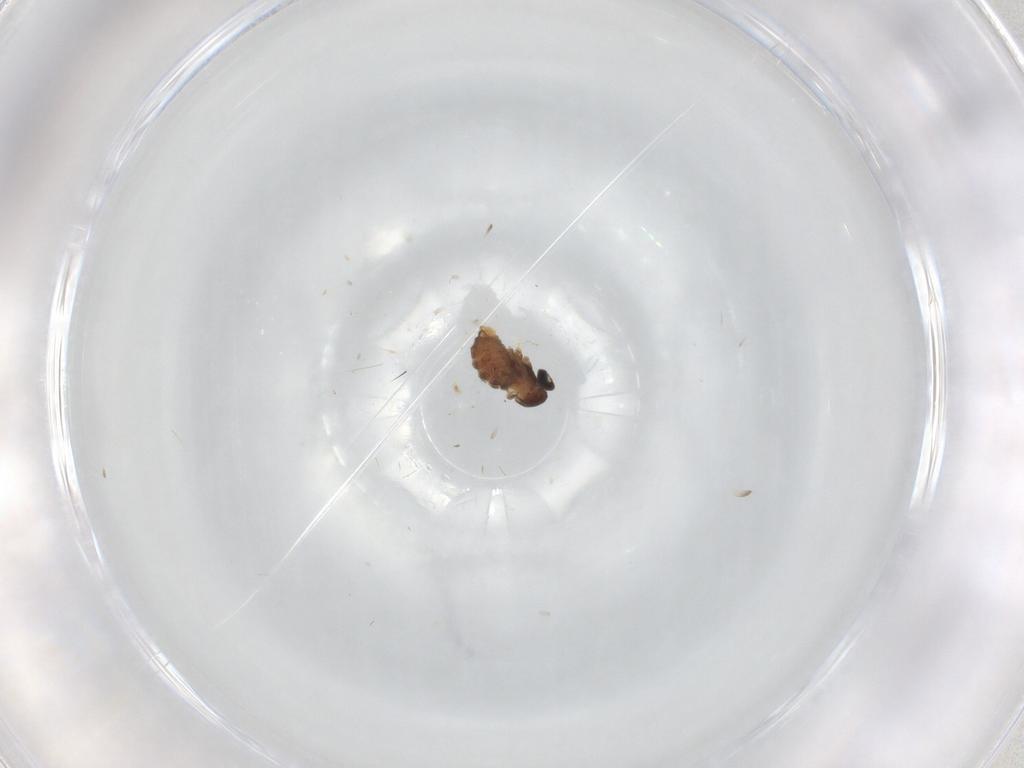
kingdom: Animalia
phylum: Arthropoda
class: Insecta
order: Diptera
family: Cecidomyiidae
